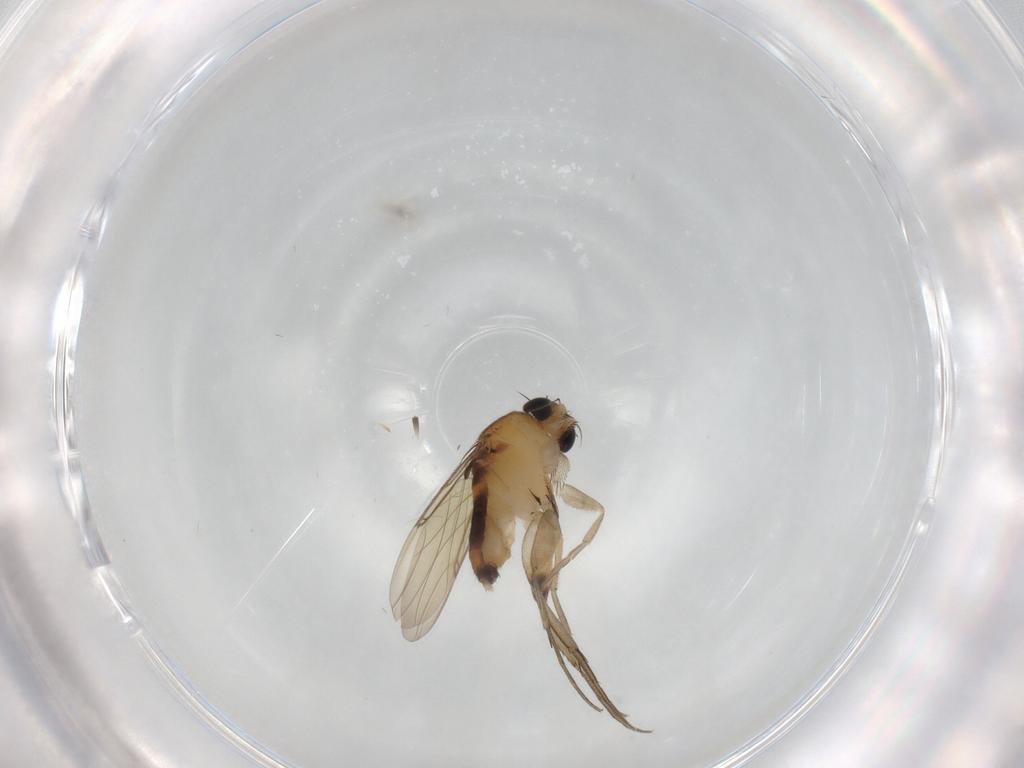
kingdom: Animalia
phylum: Arthropoda
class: Insecta
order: Diptera
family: Phoridae
